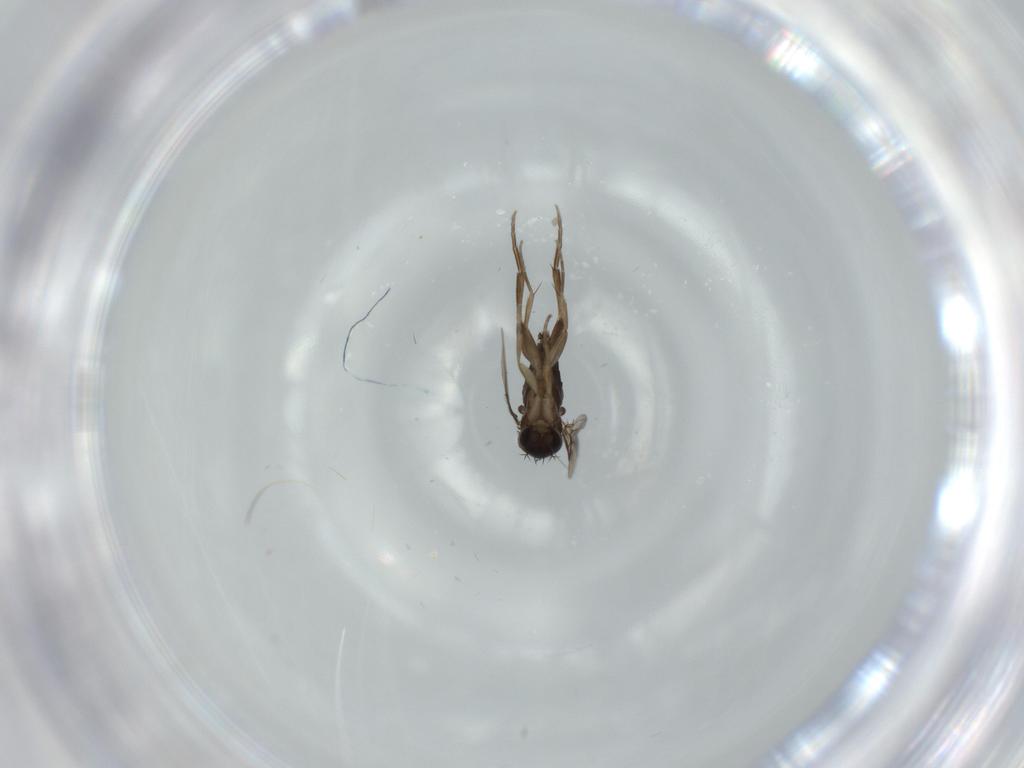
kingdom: Animalia
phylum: Arthropoda
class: Insecta
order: Diptera
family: Phoridae
